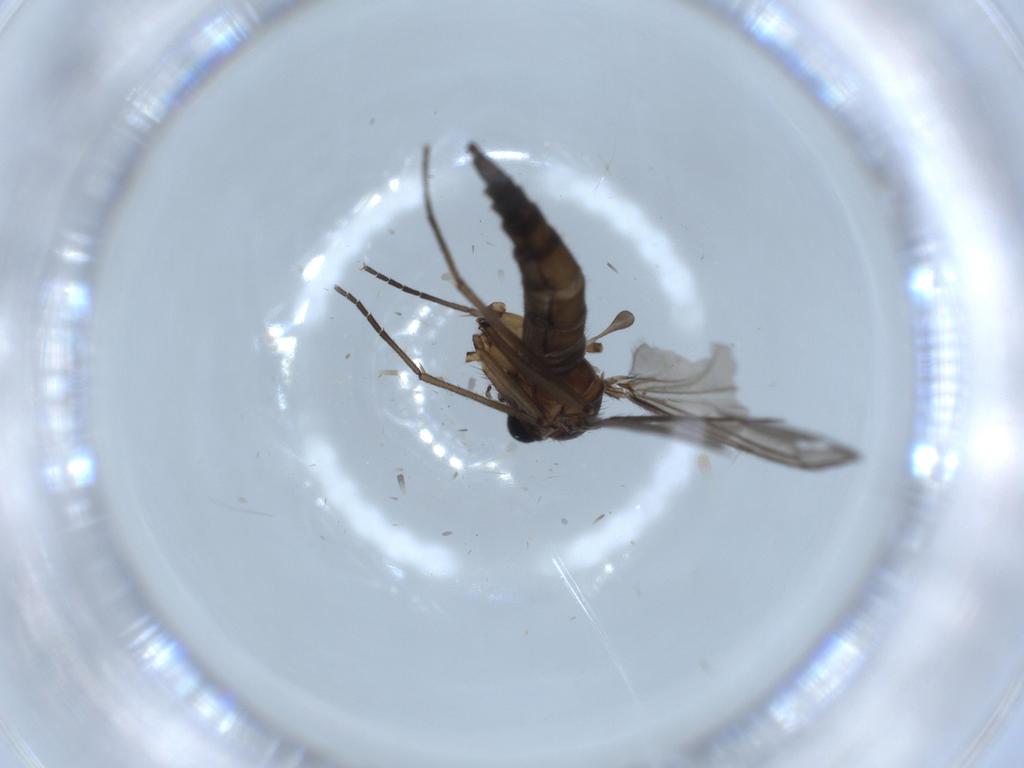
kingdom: Animalia
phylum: Arthropoda
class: Insecta
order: Diptera
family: Sciaridae
